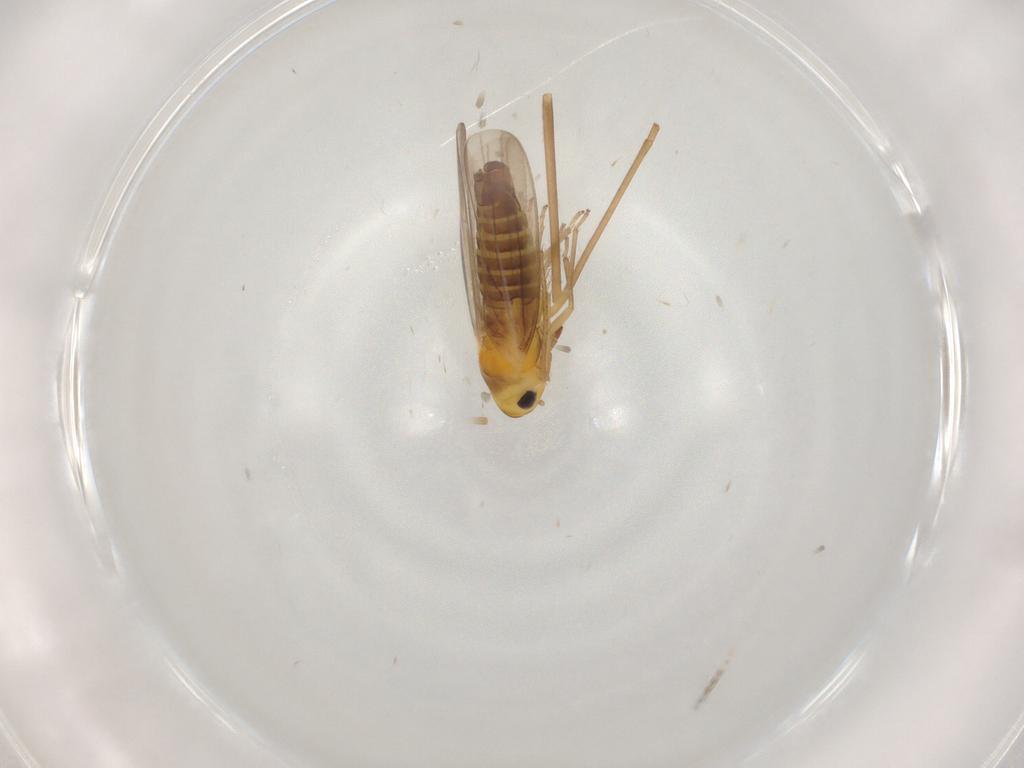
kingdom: Animalia
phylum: Arthropoda
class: Insecta
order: Hemiptera
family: Cicadellidae
